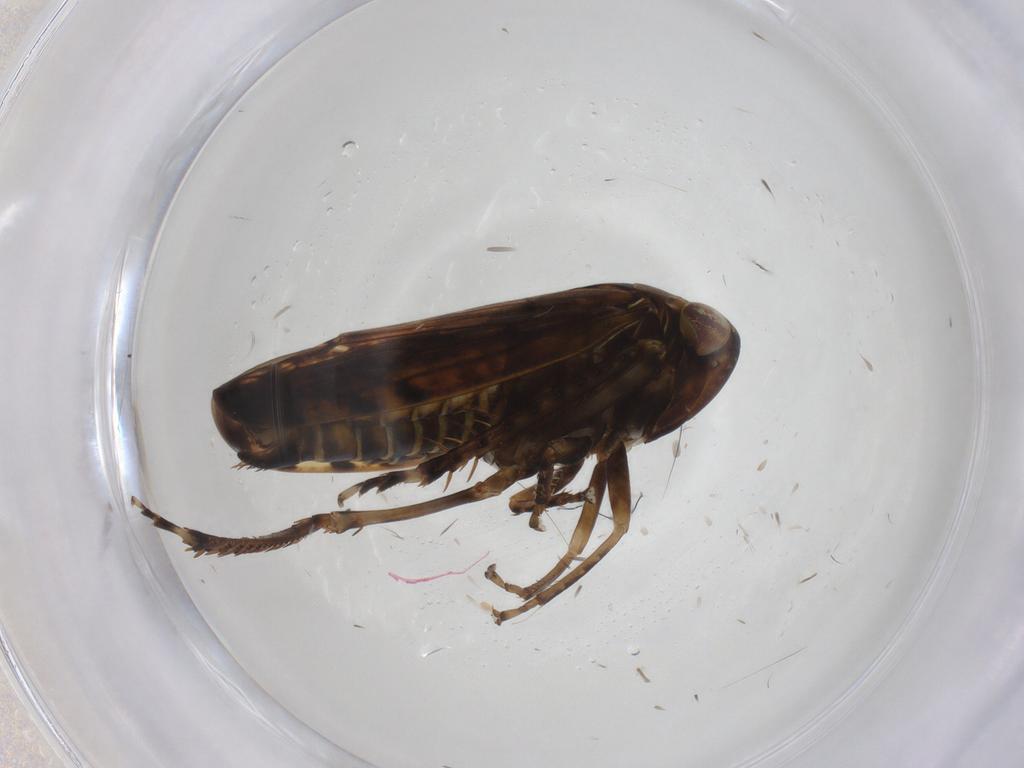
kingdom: Animalia
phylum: Arthropoda
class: Insecta
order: Hemiptera
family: Cicadellidae
